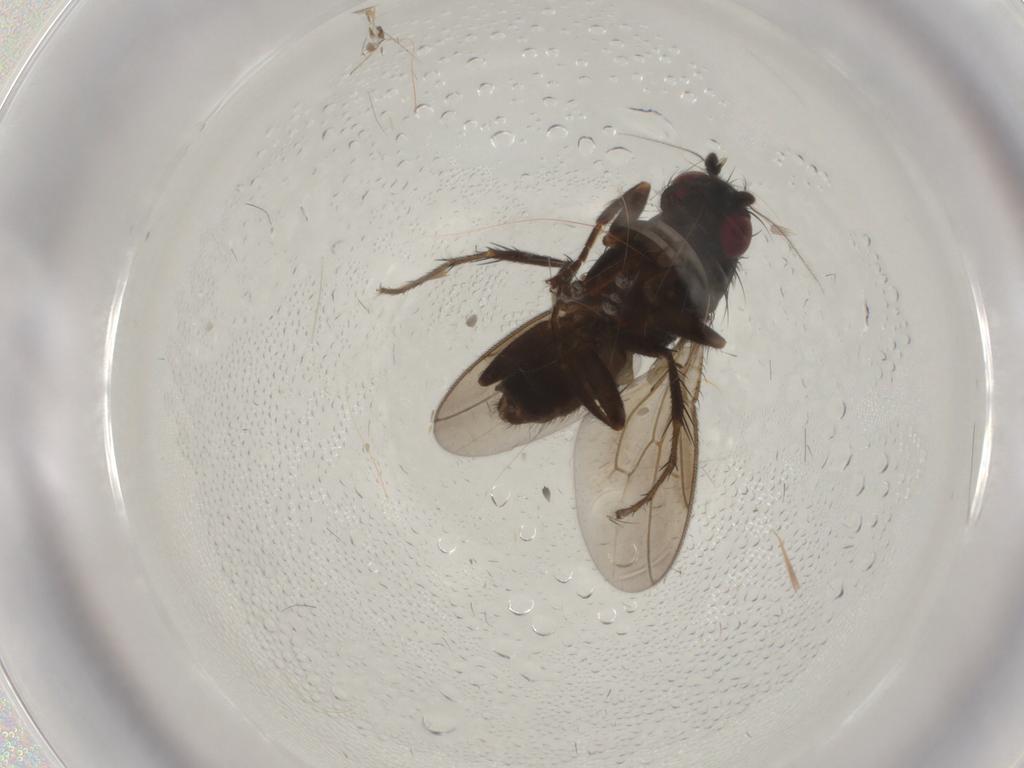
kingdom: Animalia
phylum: Arthropoda
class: Insecta
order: Diptera
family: Sphaeroceridae
